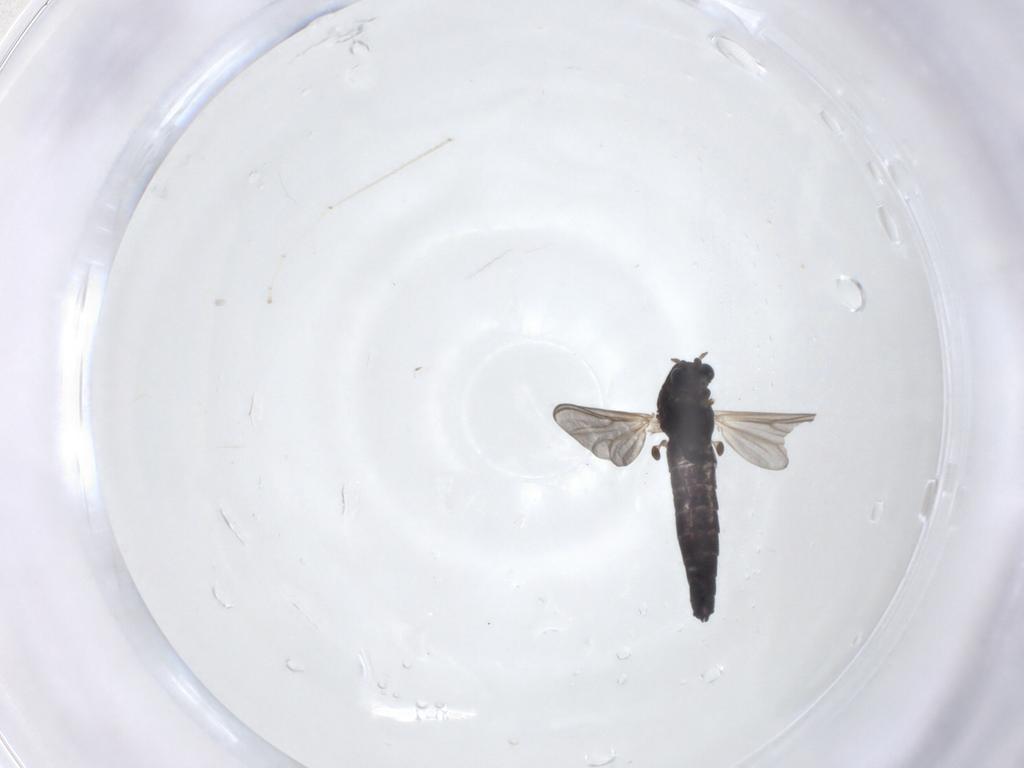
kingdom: Animalia
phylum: Arthropoda
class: Insecta
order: Diptera
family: Chironomidae
